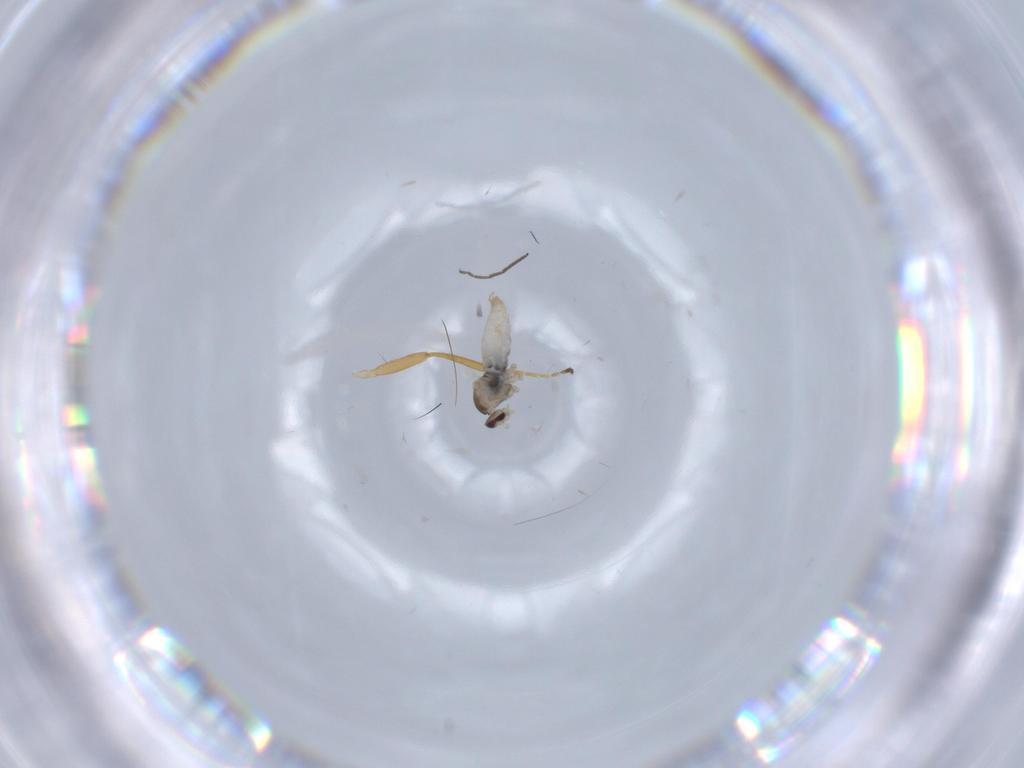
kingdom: Animalia
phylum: Arthropoda
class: Insecta
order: Diptera
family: Cecidomyiidae
